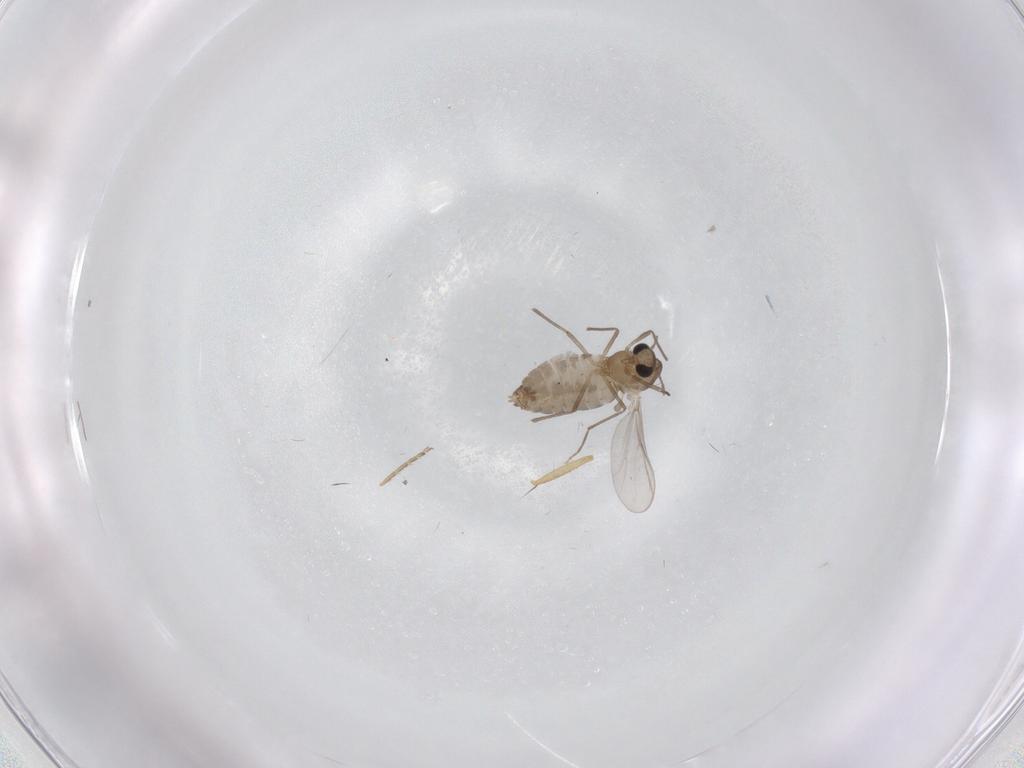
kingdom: Animalia
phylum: Arthropoda
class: Insecta
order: Diptera
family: Chironomidae
